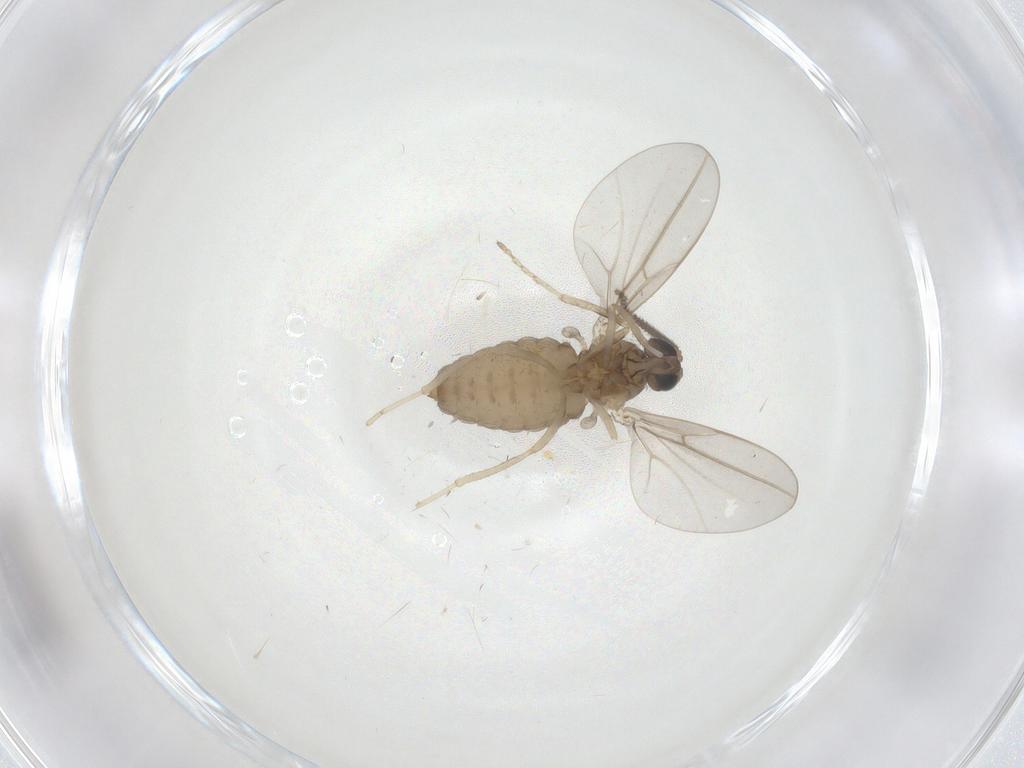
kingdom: Animalia
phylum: Arthropoda
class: Insecta
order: Diptera
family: Cecidomyiidae
